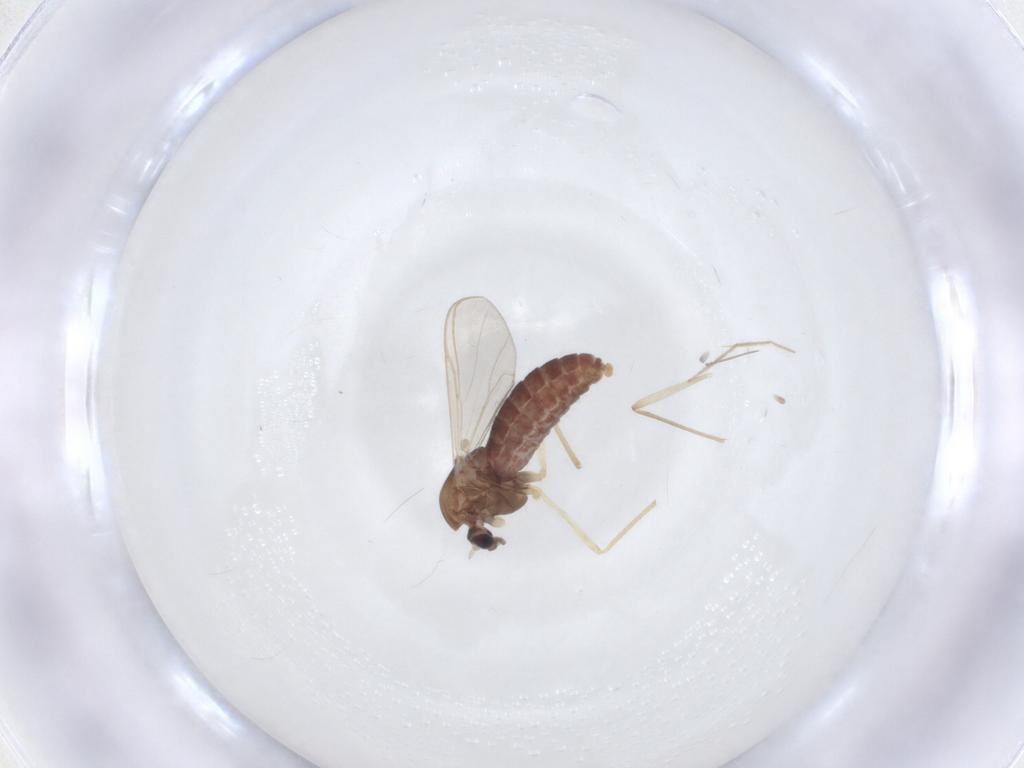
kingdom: Animalia
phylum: Arthropoda
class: Insecta
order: Diptera
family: Chironomidae
